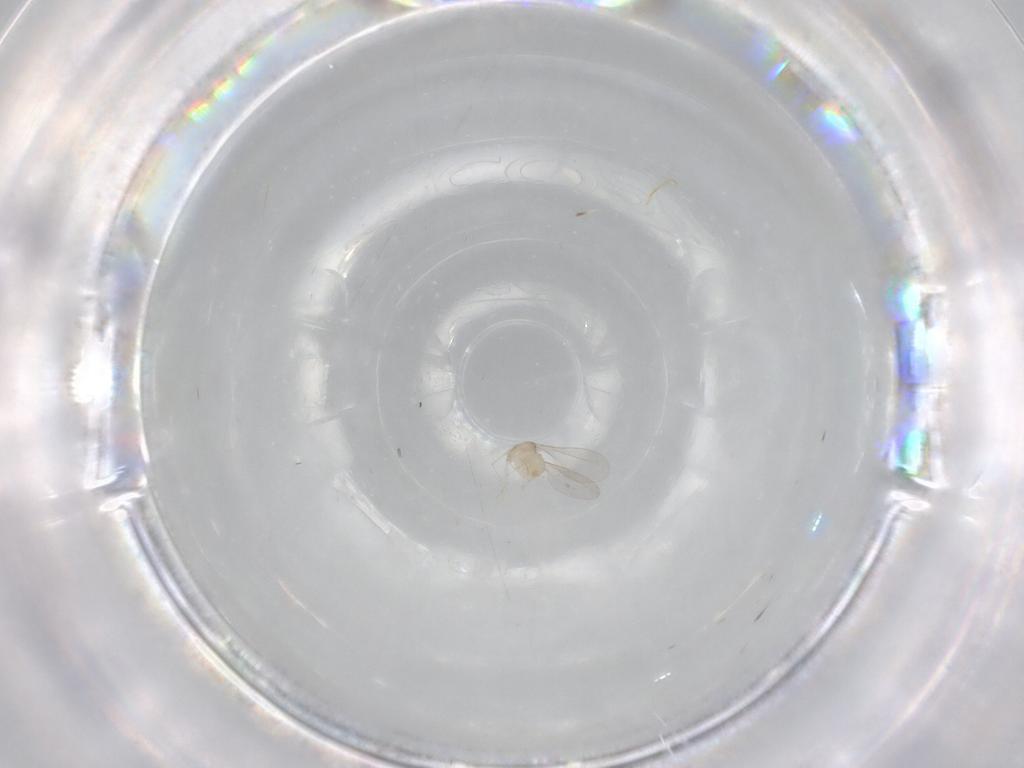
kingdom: Animalia
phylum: Arthropoda
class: Insecta
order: Diptera
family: Cecidomyiidae
